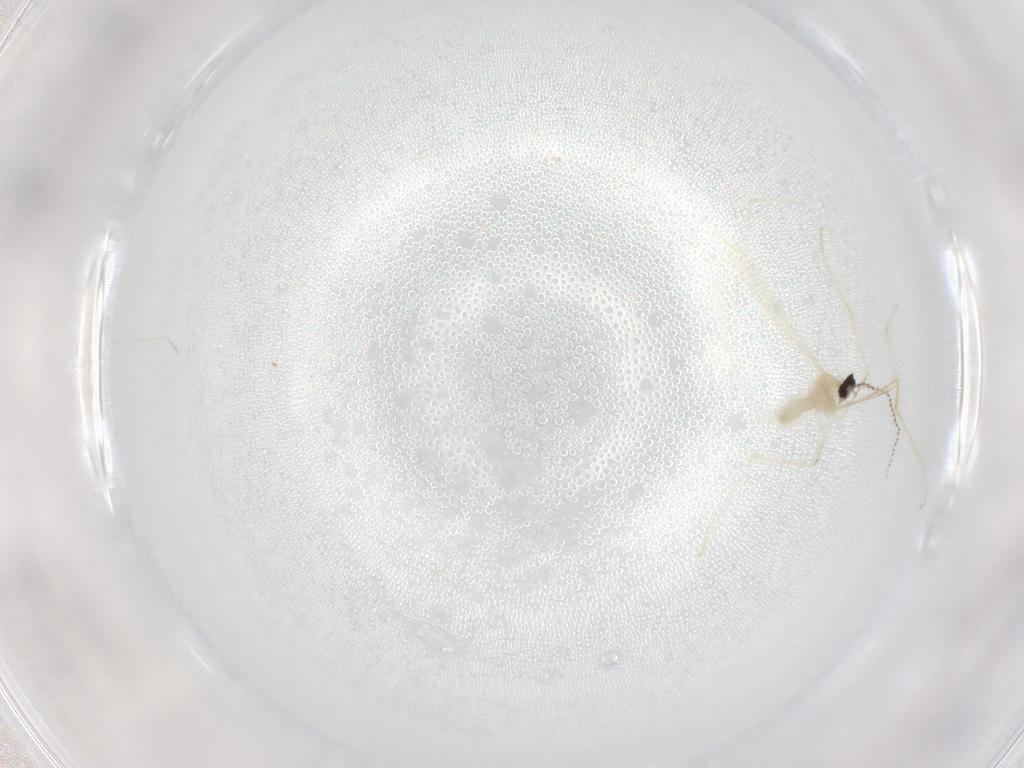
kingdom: Animalia
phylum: Arthropoda
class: Insecta
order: Diptera
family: Cecidomyiidae
